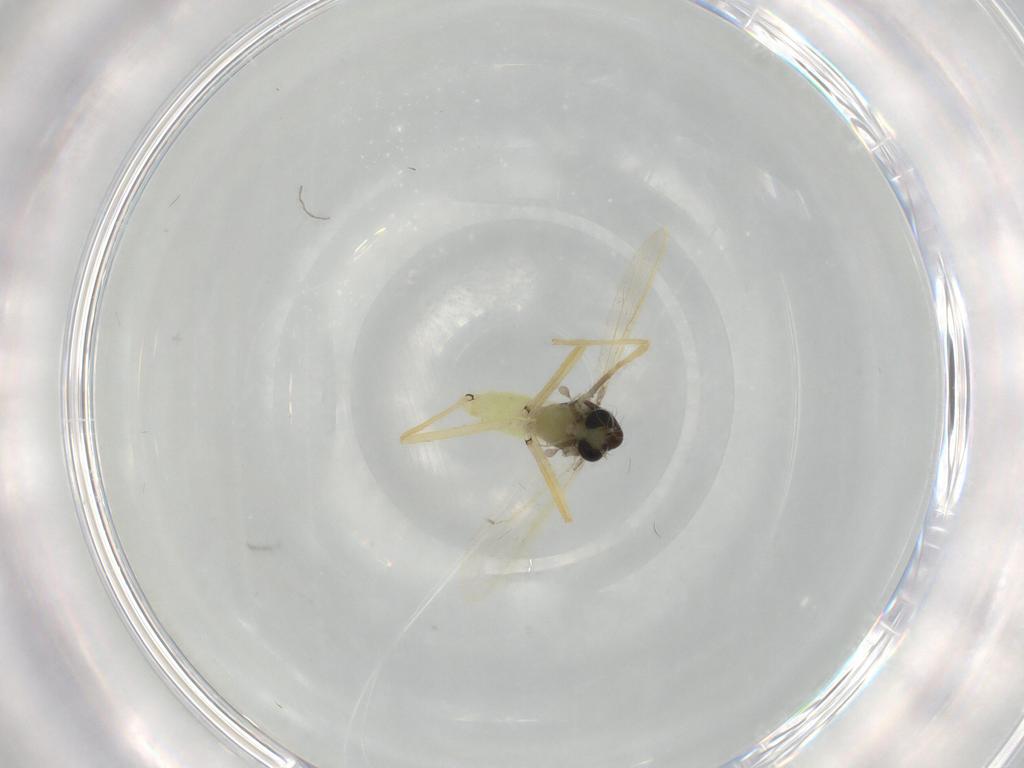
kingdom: Animalia
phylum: Arthropoda
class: Insecta
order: Diptera
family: Chironomidae
